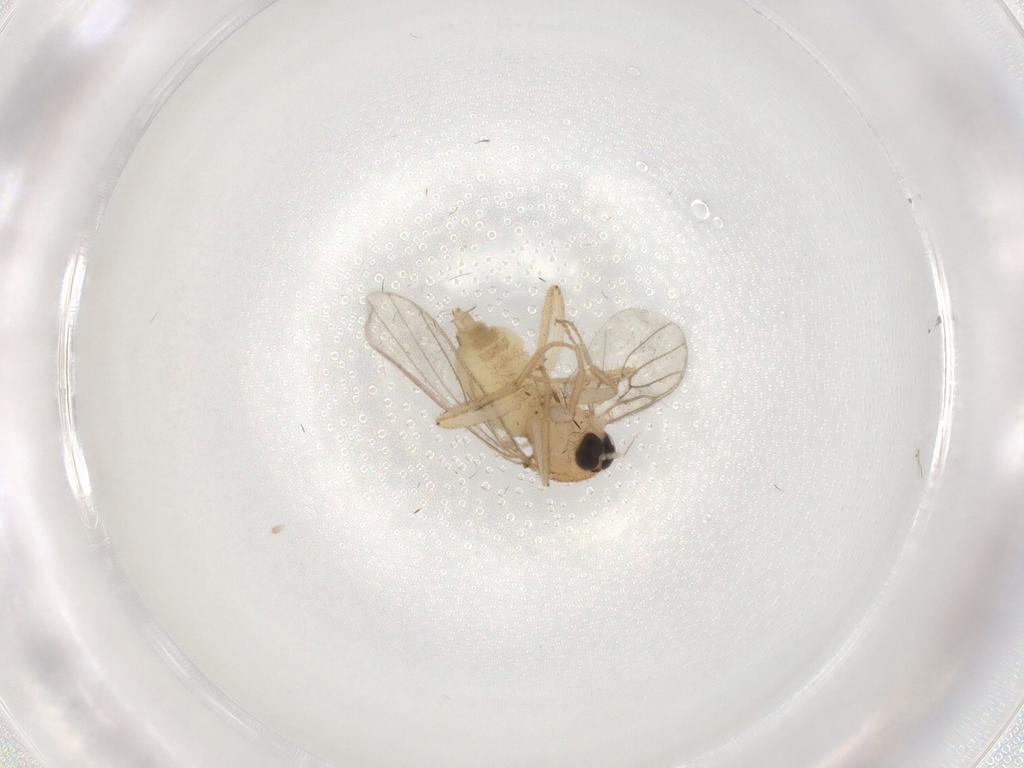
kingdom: Animalia
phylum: Arthropoda
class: Insecta
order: Diptera
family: Hybotidae
